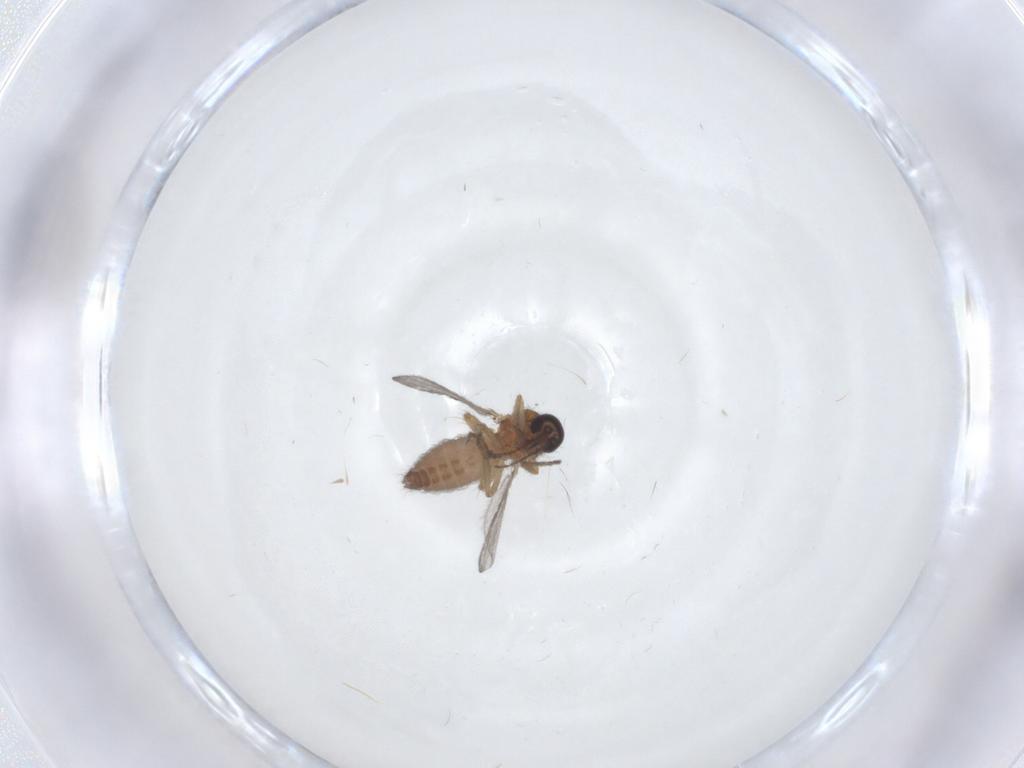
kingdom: Animalia
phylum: Arthropoda
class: Insecta
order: Diptera
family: Ceratopogonidae
